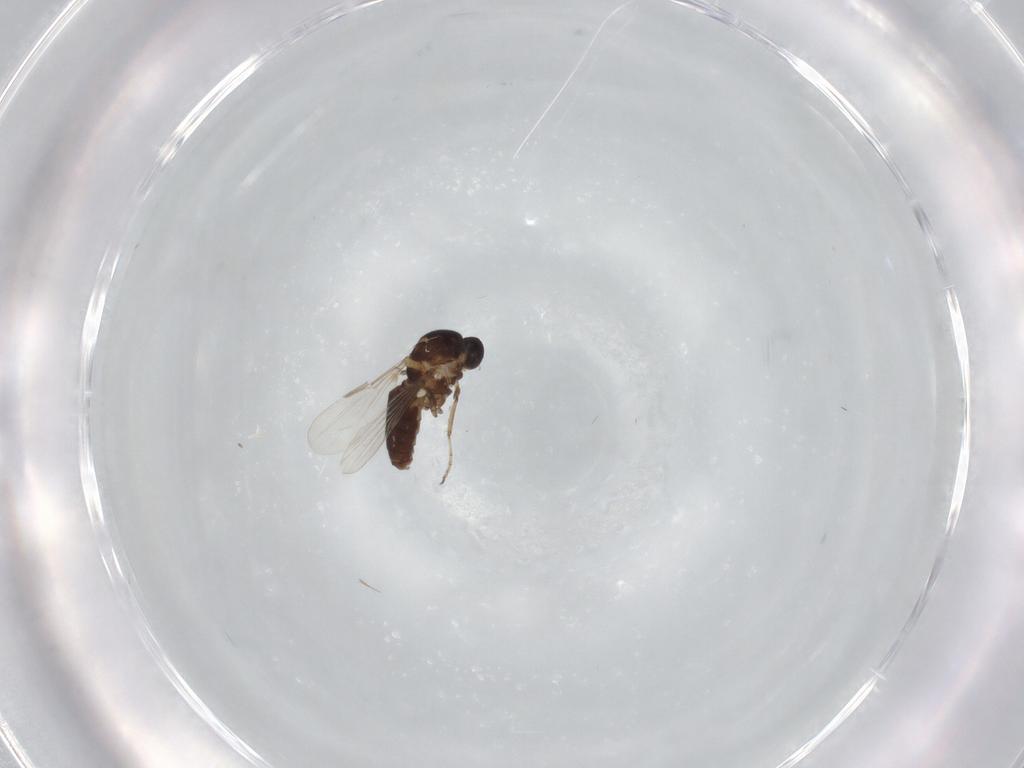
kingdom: Animalia
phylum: Arthropoda
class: Insecta
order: Diptera
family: Ceratopogonidae
